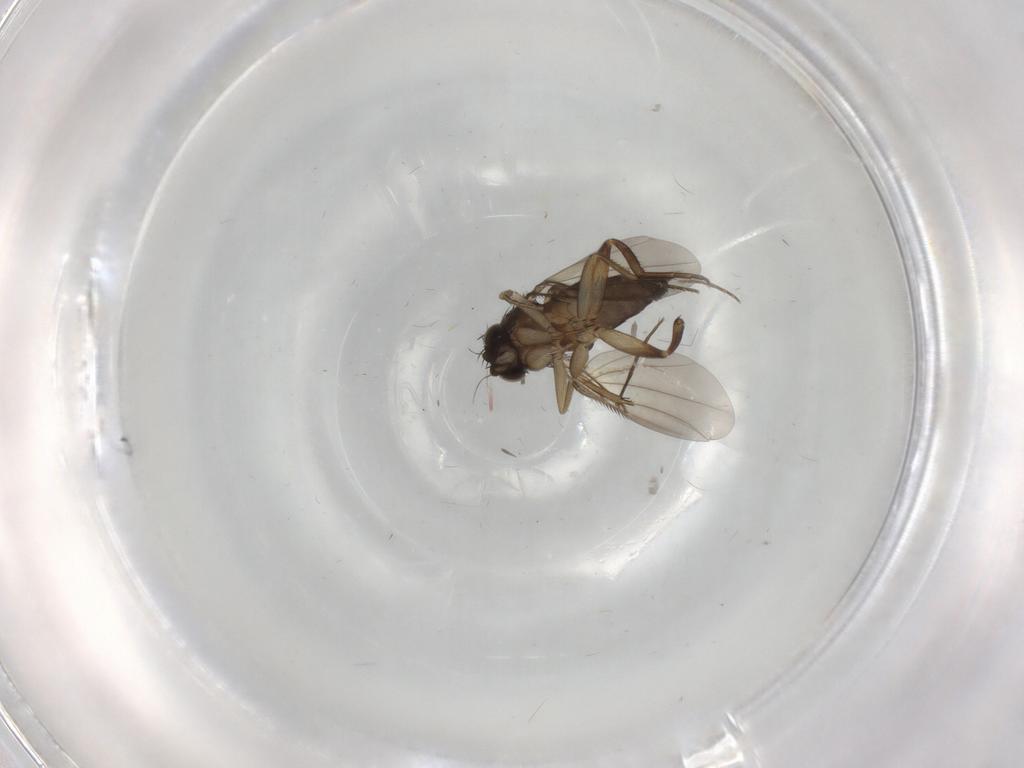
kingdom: Animalia
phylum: Arthropoda
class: Insecta
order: Diptera
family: Phoridae
